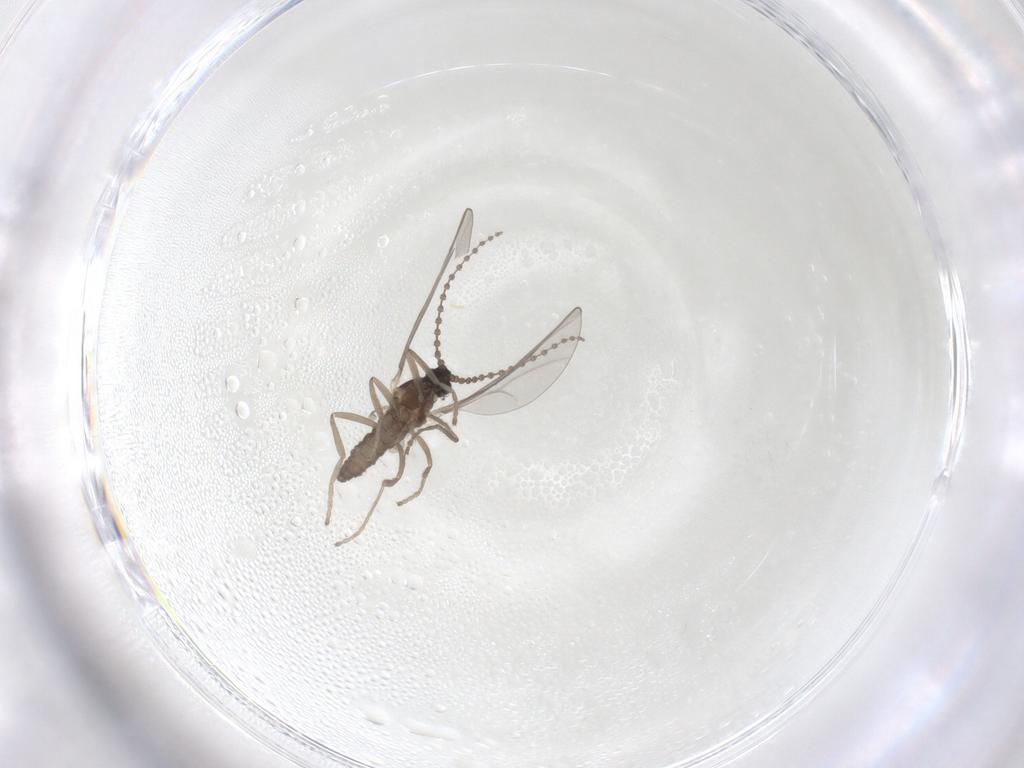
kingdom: Animalia
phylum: Arthropoda
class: Insecta
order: Diptera
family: Cecidomyiidae
